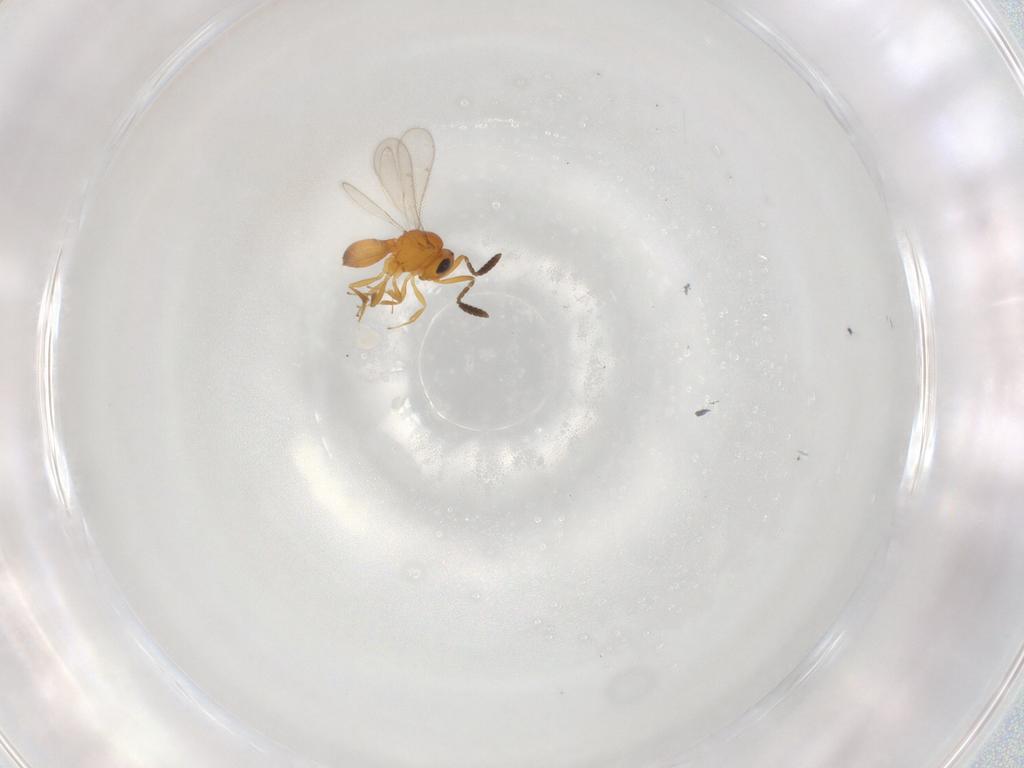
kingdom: Animalia
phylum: Arthropoda
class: Insecta
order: Hymenoptera
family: Scelionidae
